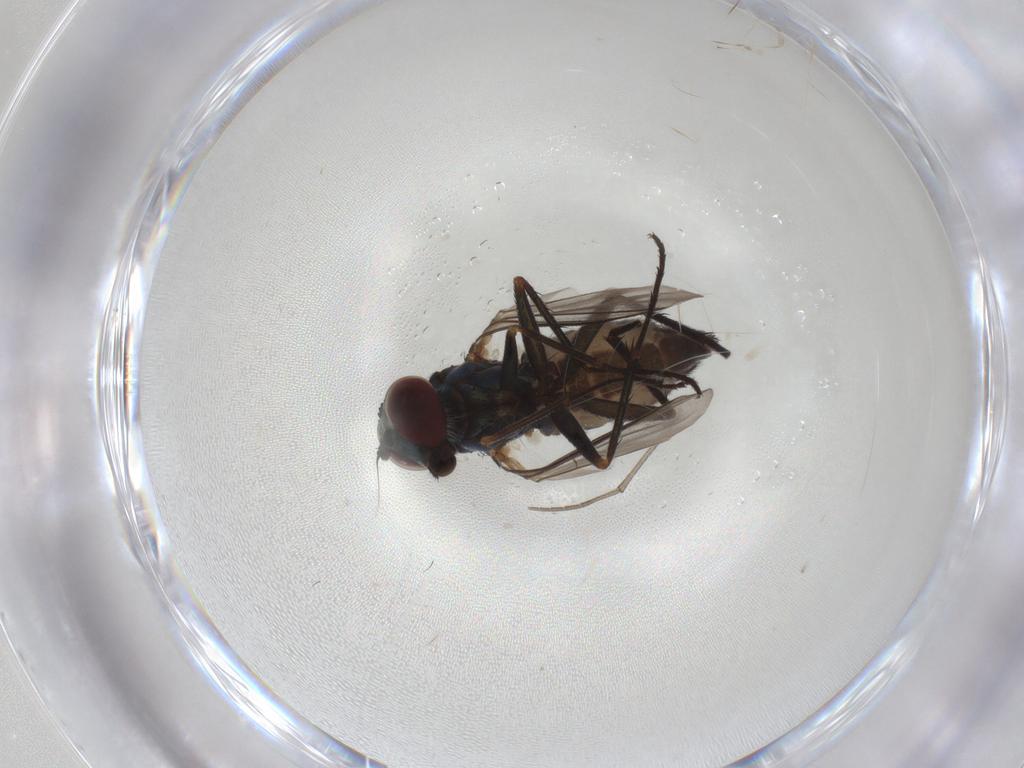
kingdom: Animalia
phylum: Arthropoda
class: Insecta
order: Diptera
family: Dolichopodidae
